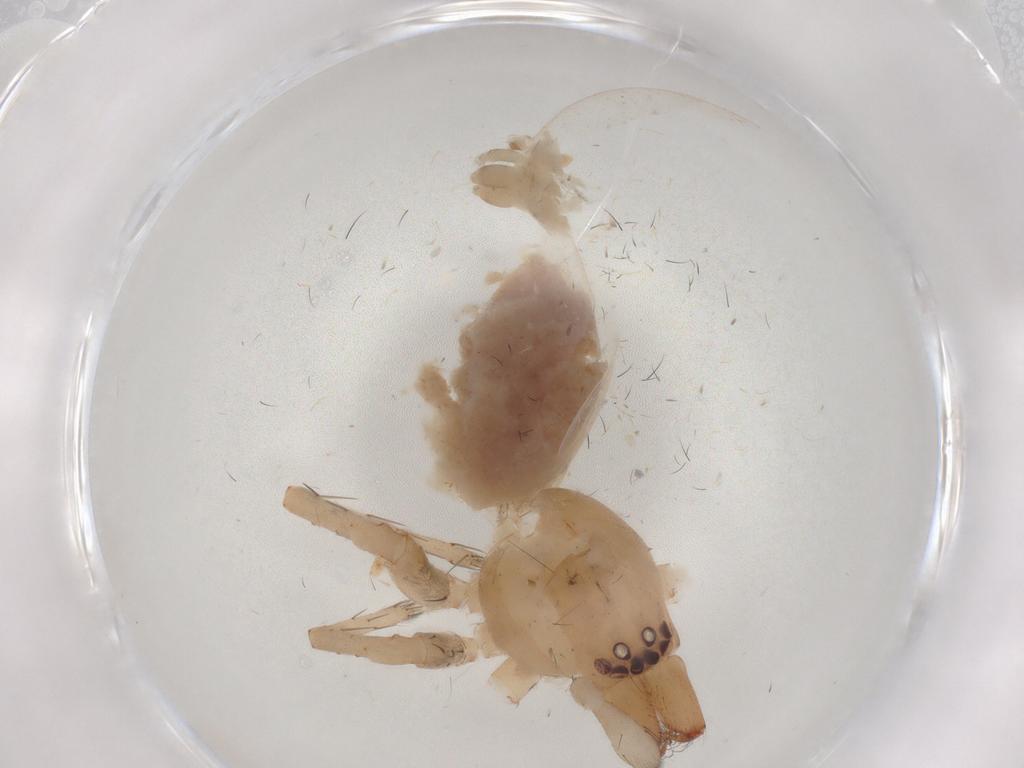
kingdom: Animalia
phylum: Arthropoda
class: Arachnida
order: Araneae
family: Anyphaenidae
